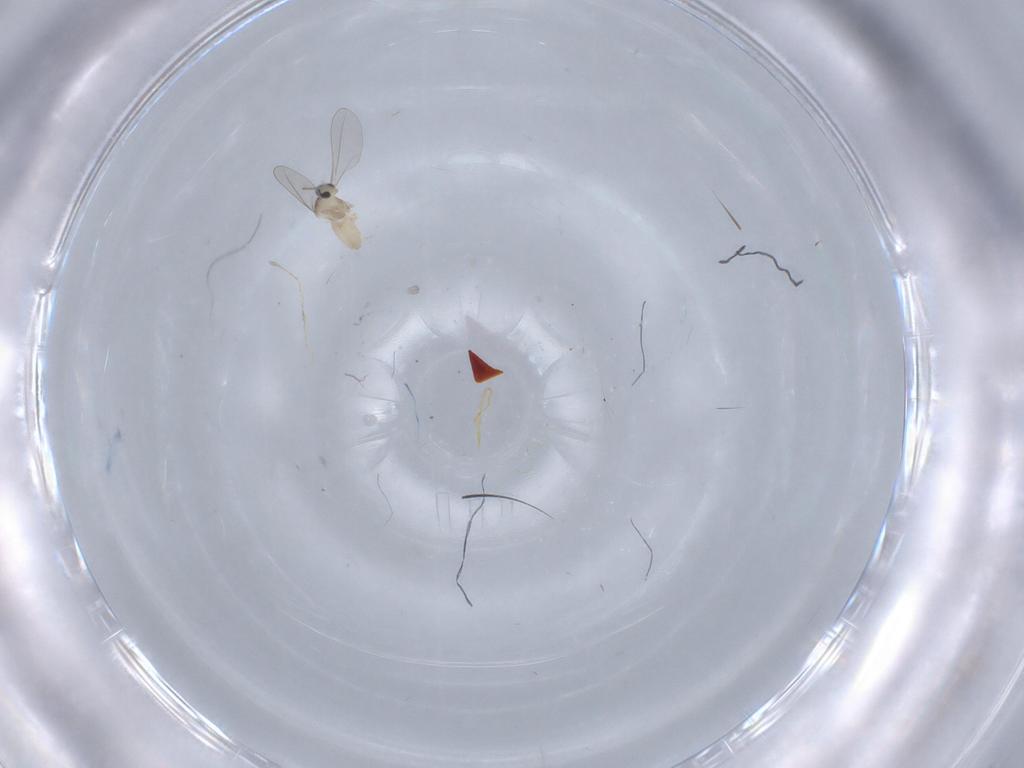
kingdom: Animalia
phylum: Arthropoda
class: Insecta
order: Diptera
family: Cecidomyiidae
